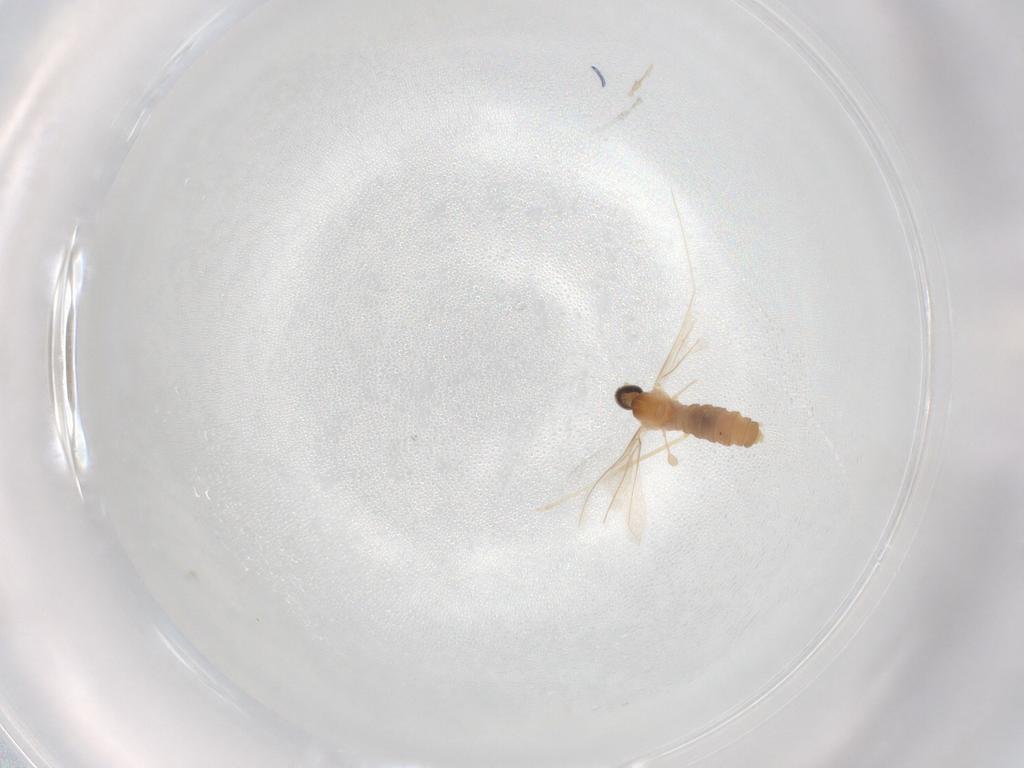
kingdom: Animalia
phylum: Arthropoda
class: Insecta
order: Diptera
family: Cecidomyiidae
